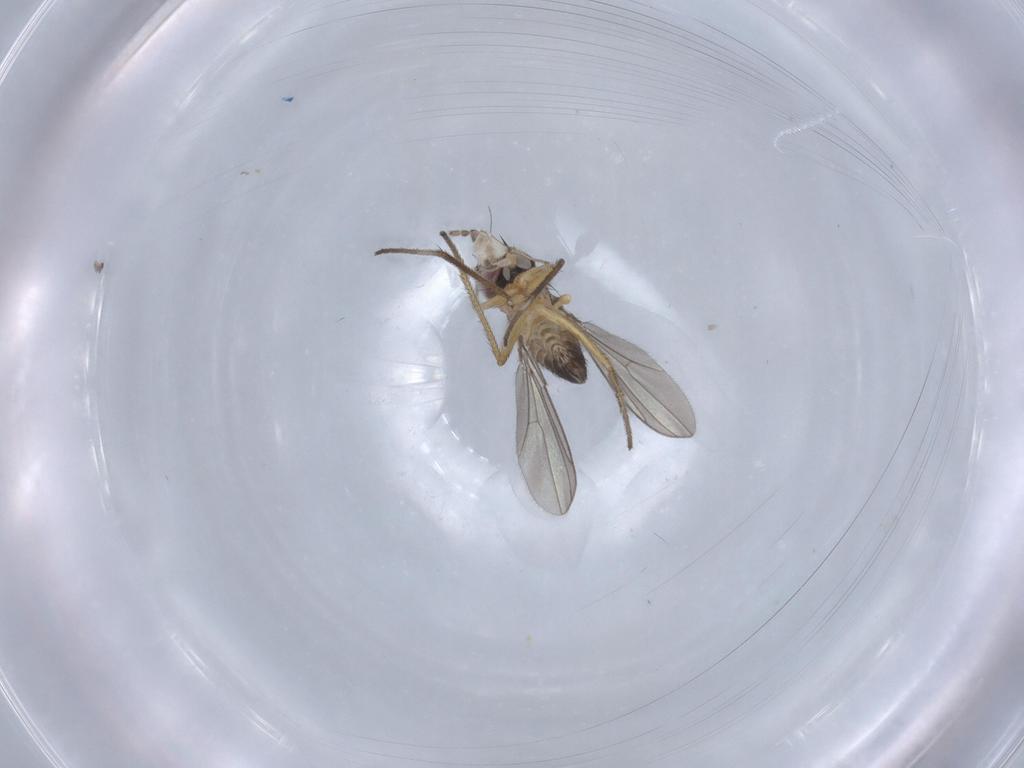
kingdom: Animalia
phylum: Arthropoda
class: Insecta
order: Diptera
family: Dolichopodidae
